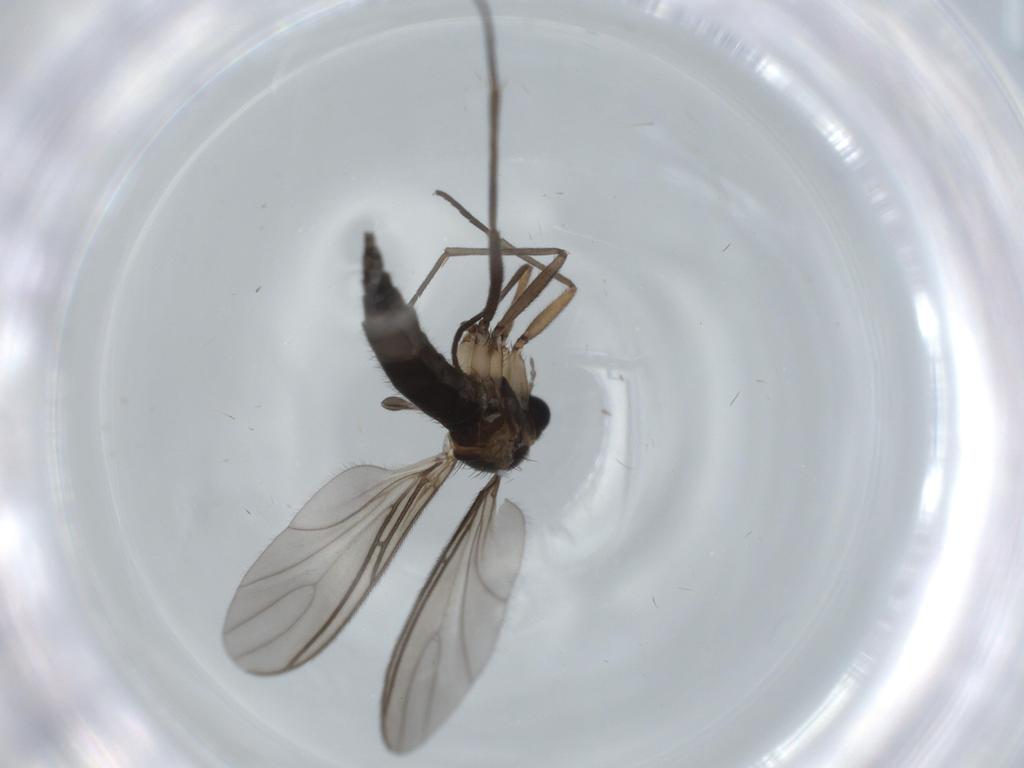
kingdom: Animalia
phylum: Arthropoda
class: Insecta
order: Diptera
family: Sciaridae
